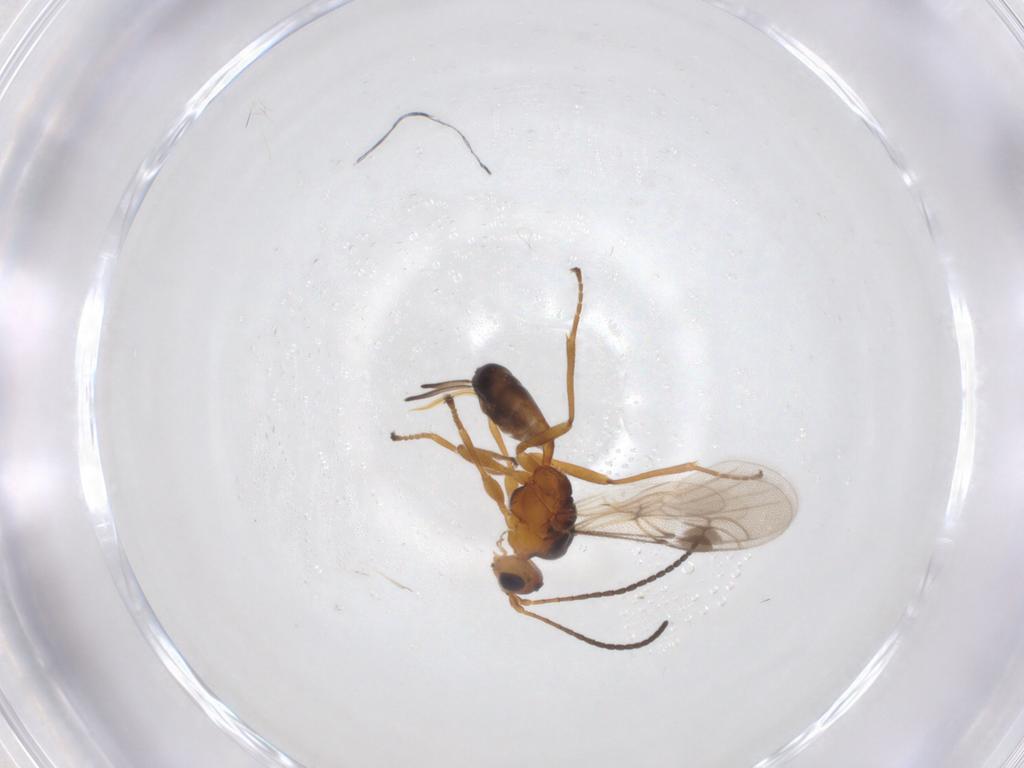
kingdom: Animalia
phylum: Arthropoda
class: Insecta
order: Hymenoptera
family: Braconidae
